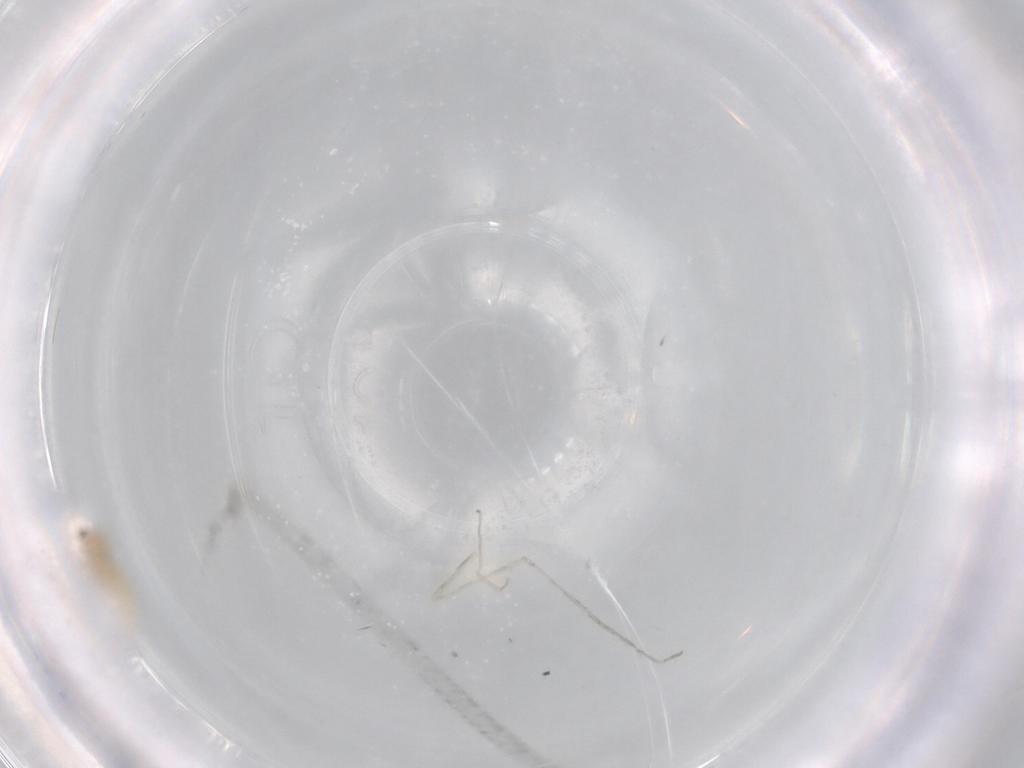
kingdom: Animalia
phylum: Arthropoda
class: Insecta
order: Diptera
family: Cecidomyiidae
